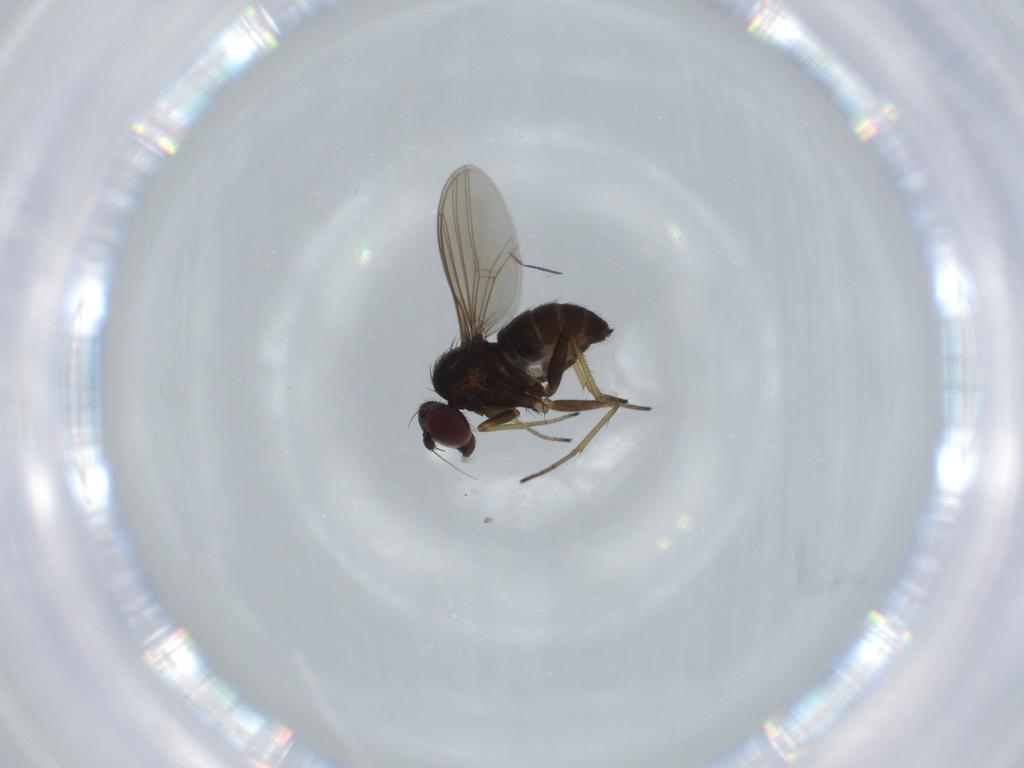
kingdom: Animalia
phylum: Arthropoda
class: Insecta
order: Diptera
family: Dolichopodidae
